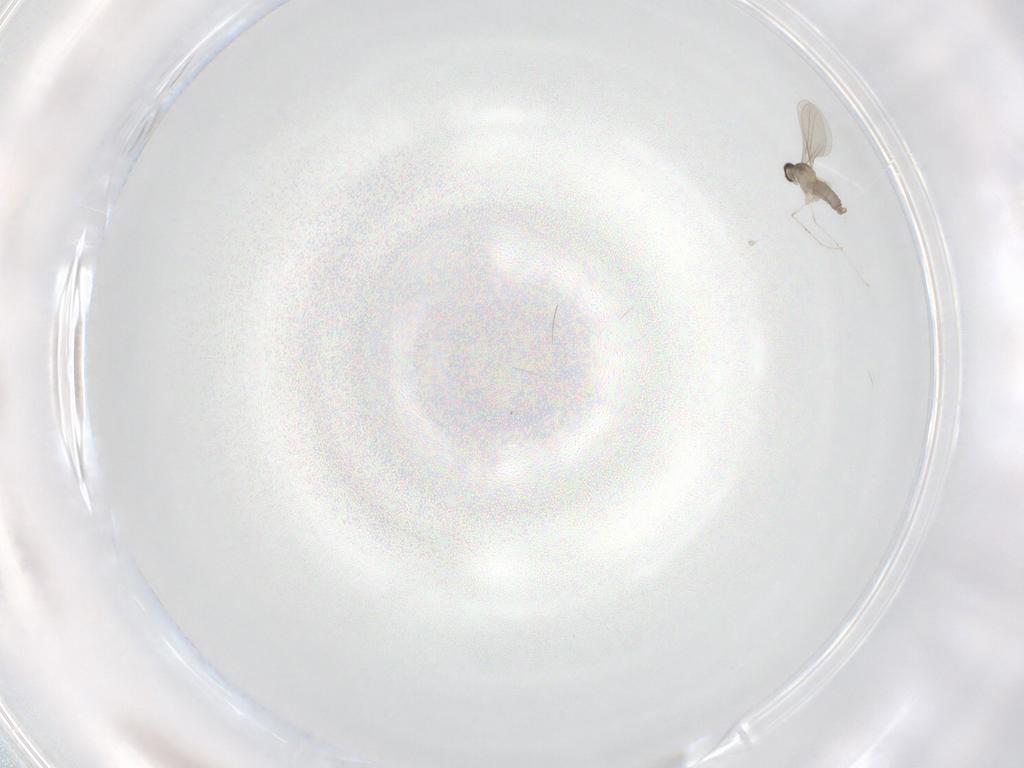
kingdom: Animalia
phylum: Arthropoda
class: Insecta
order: Diptera
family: Cecidomyiidae
